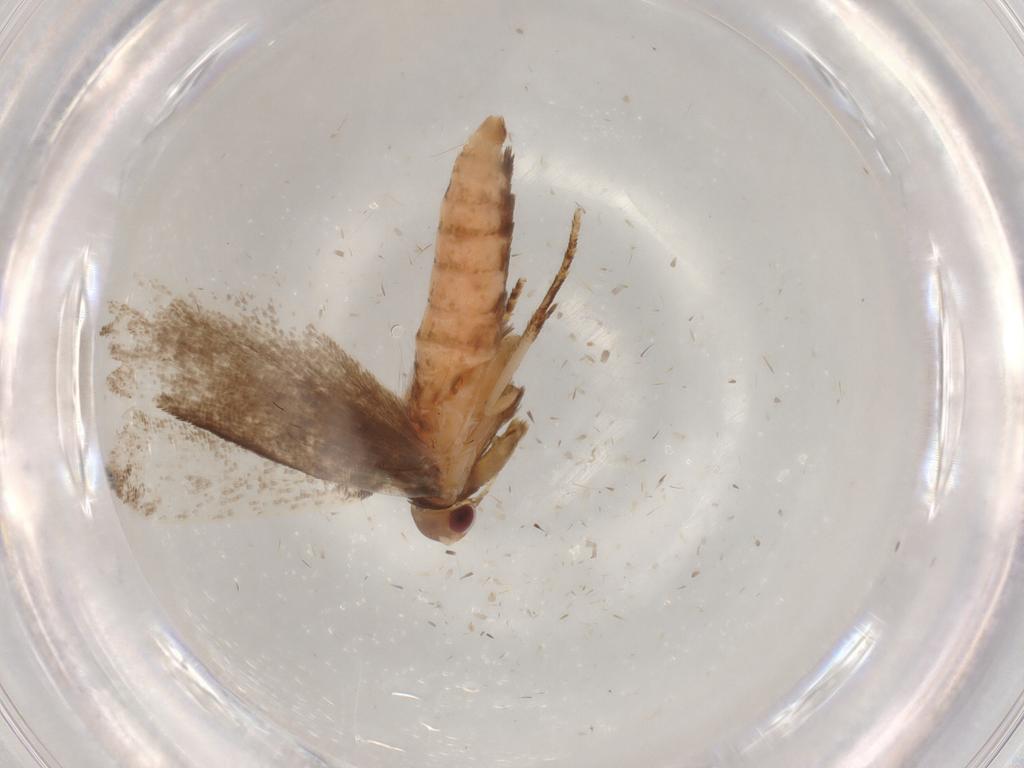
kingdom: Animalia
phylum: Arthropoda
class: Insecta
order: Lepidoptera
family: Gelechiidae
